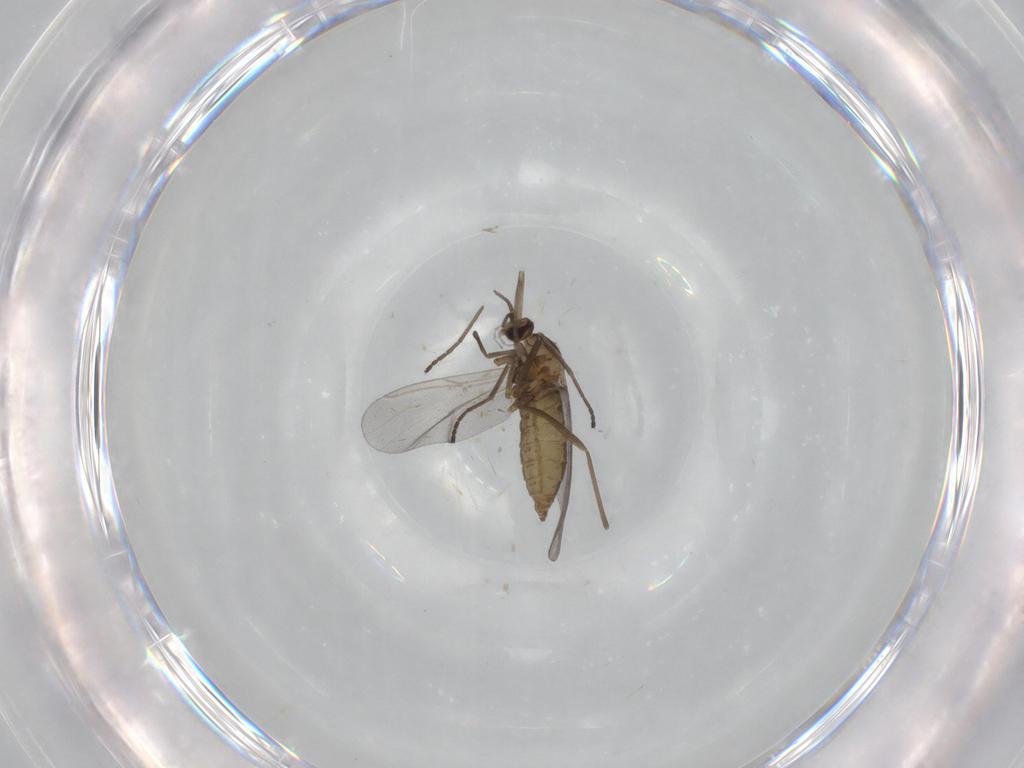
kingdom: Animalia
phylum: Arthropoda
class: Insecta
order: Diptera
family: Cecidomyiidae
